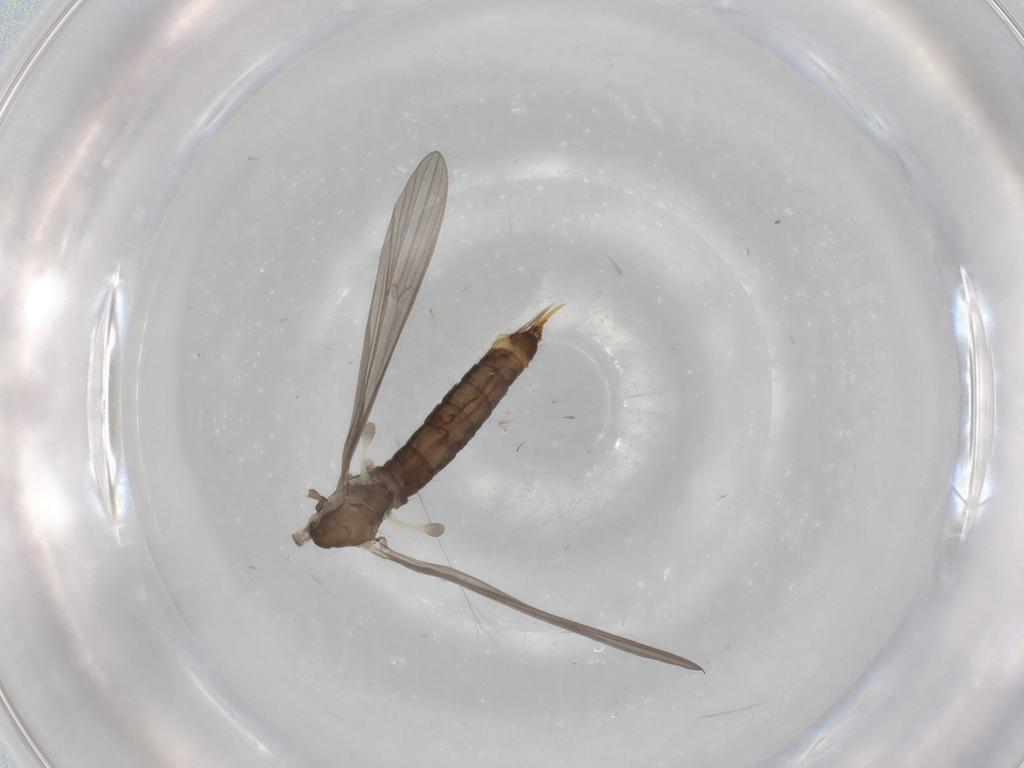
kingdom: Animalia
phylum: Arthropoda
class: Insecta
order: Diptera
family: Limoniidae
